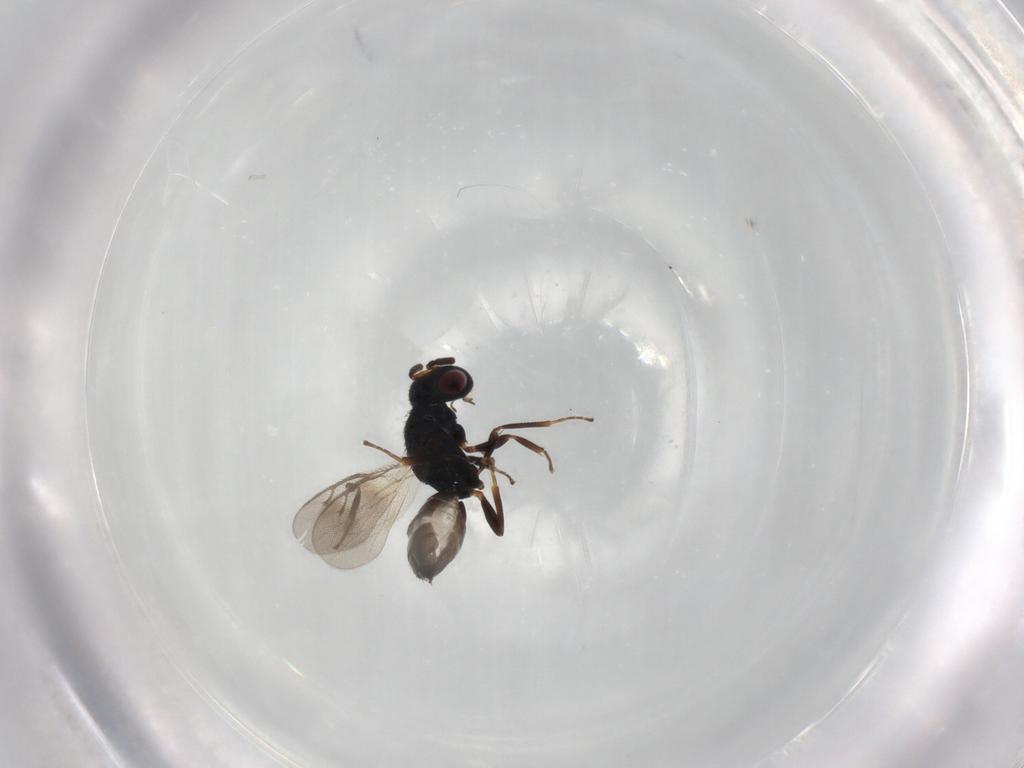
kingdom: Animalia
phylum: Arthropoda
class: Insecta
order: Hymenoptera
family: Pteromalidae
